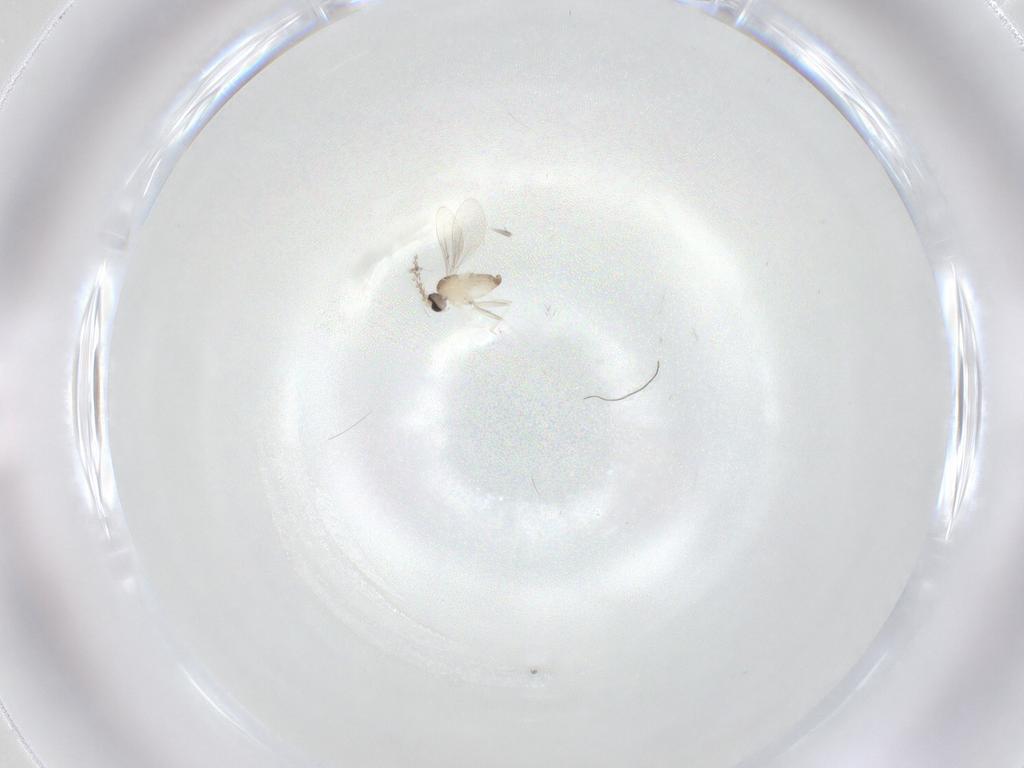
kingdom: Animalia
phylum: Arthropoda
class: Insecta
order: Diptera
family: Cecidomyiidae
